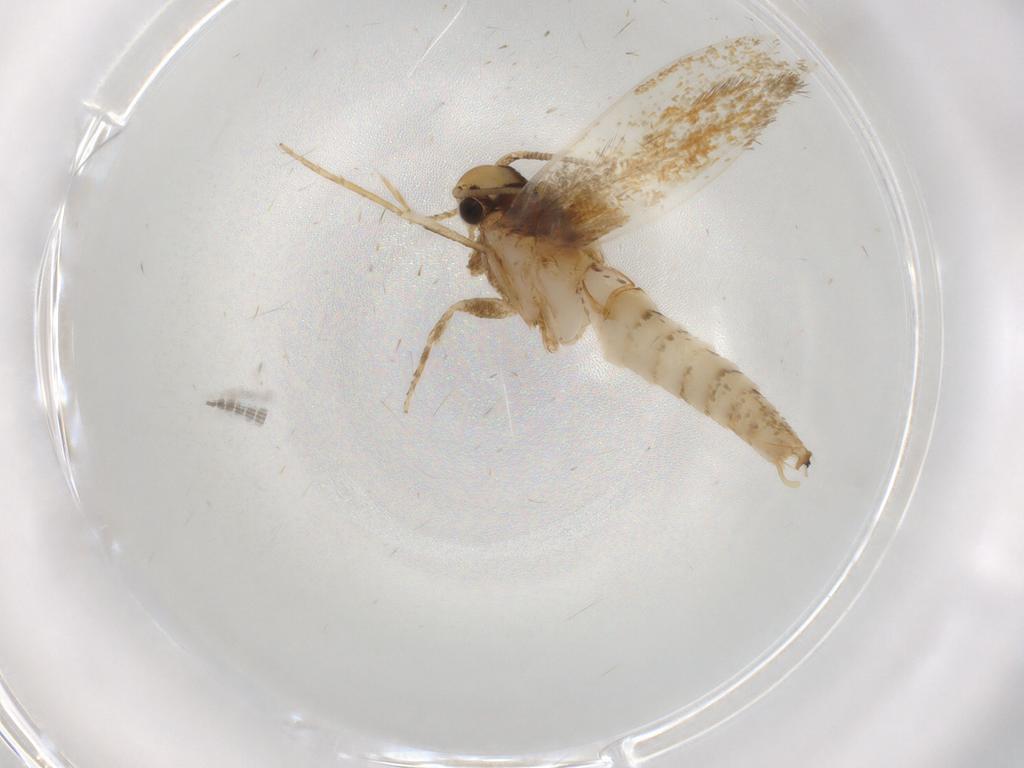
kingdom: Animalia
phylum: Arthropoda
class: Insecta
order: Lepidoptera
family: Tineidae
